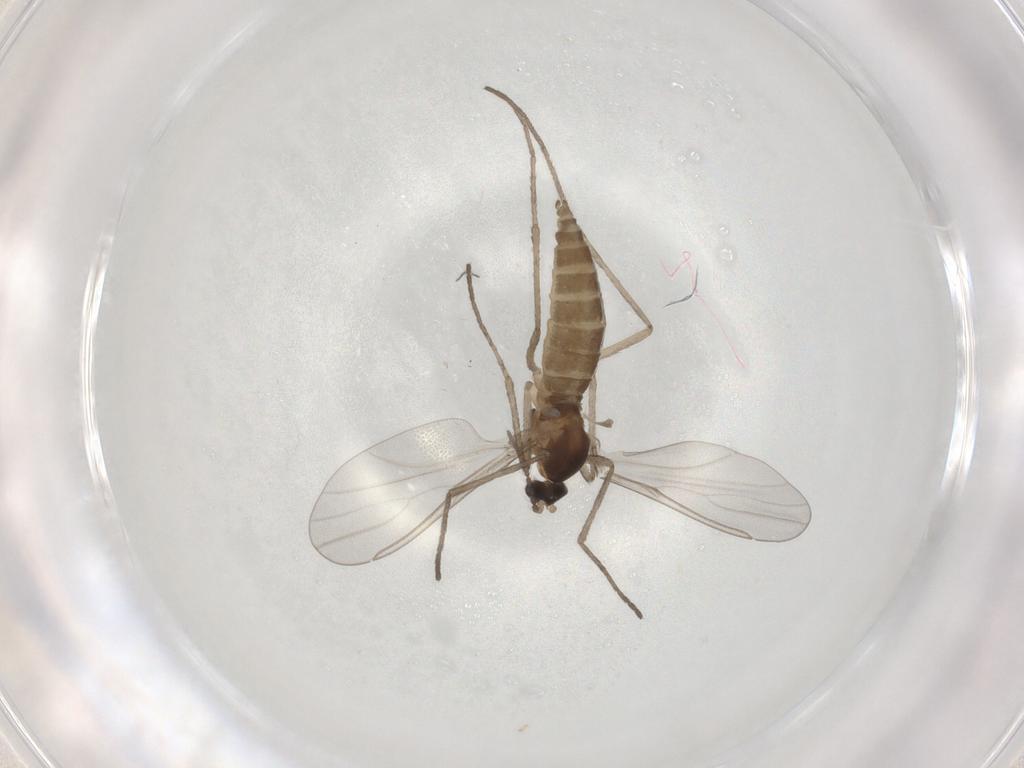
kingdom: Animalia
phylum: Arthropoda
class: Insecta
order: Diptera
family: Cecidomyiidae
